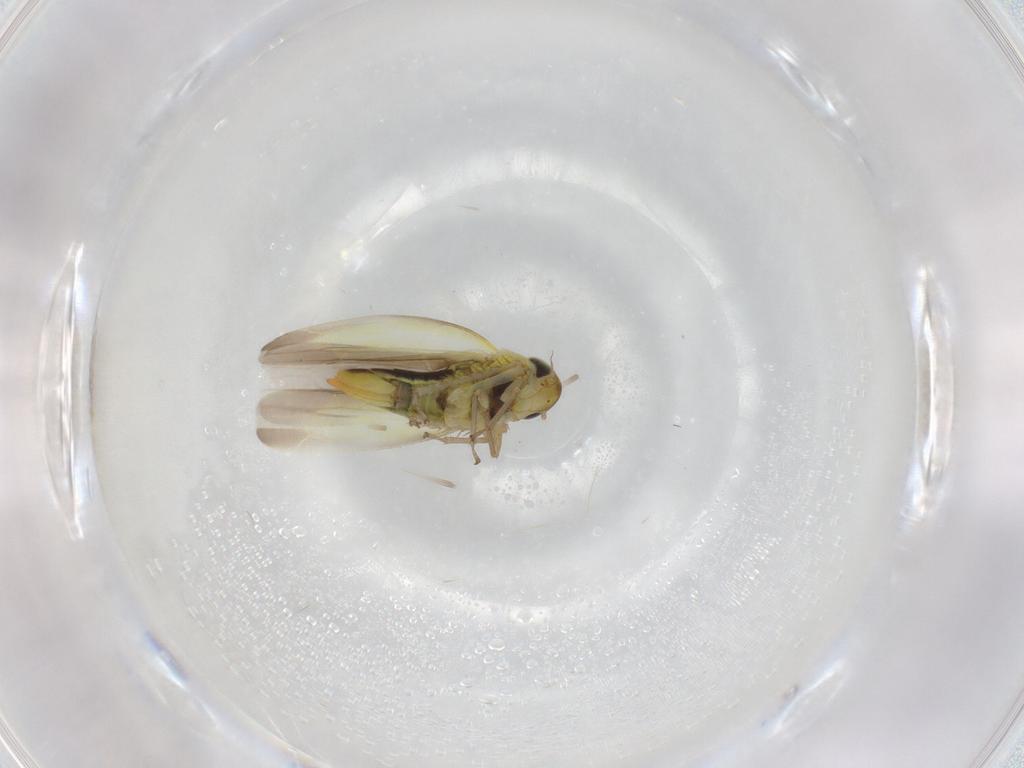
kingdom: Animalia
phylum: Arthropoda
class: Insecta
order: Hemiptera
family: Cicadellidae
